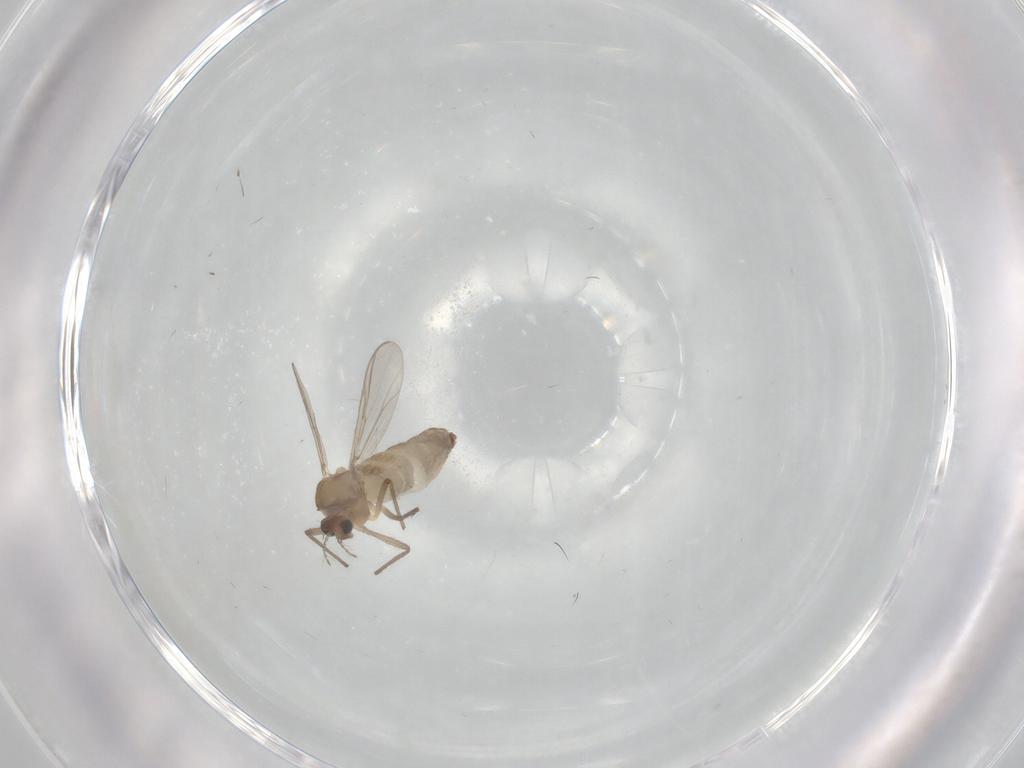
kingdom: Animalia
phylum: Arthropoda
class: Insecta
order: Diptera
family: Chironomidae
